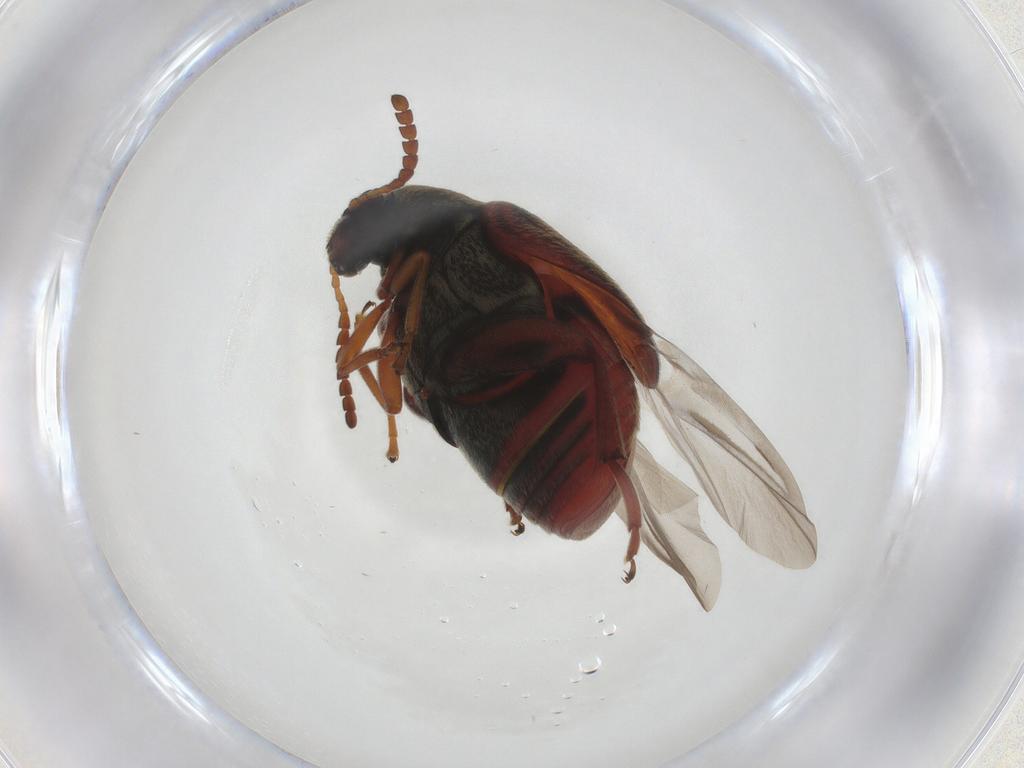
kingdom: Animalia
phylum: Arthropoda
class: Insecta
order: Coleoptera
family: Chrysomelidae
